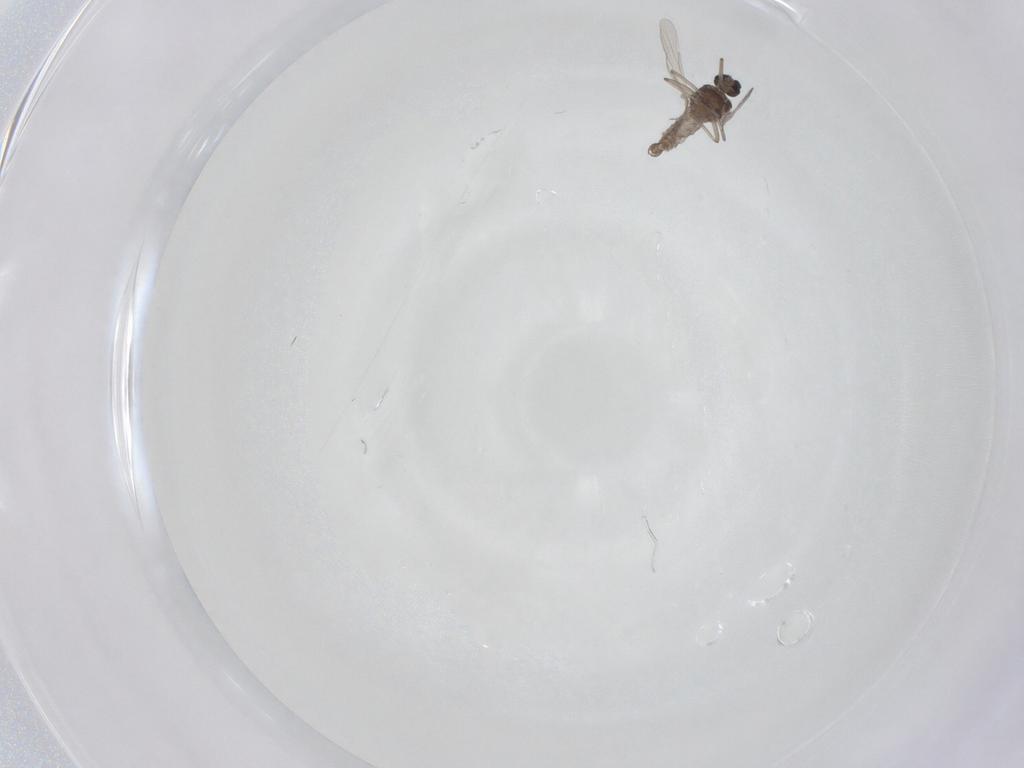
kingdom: Animalia
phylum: Arthropoda
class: Insecta
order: Diptera
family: Ceratopogonidae
